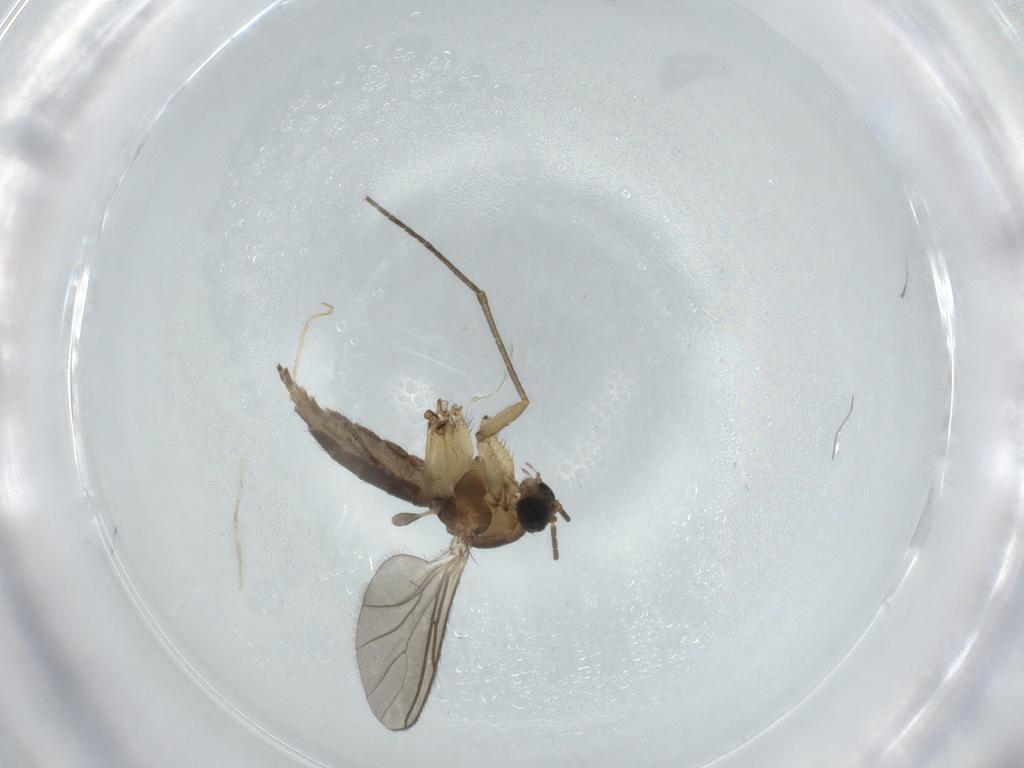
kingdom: Animalia
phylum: Arthropoda
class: Insecta
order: Diptera
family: Sciaridae
